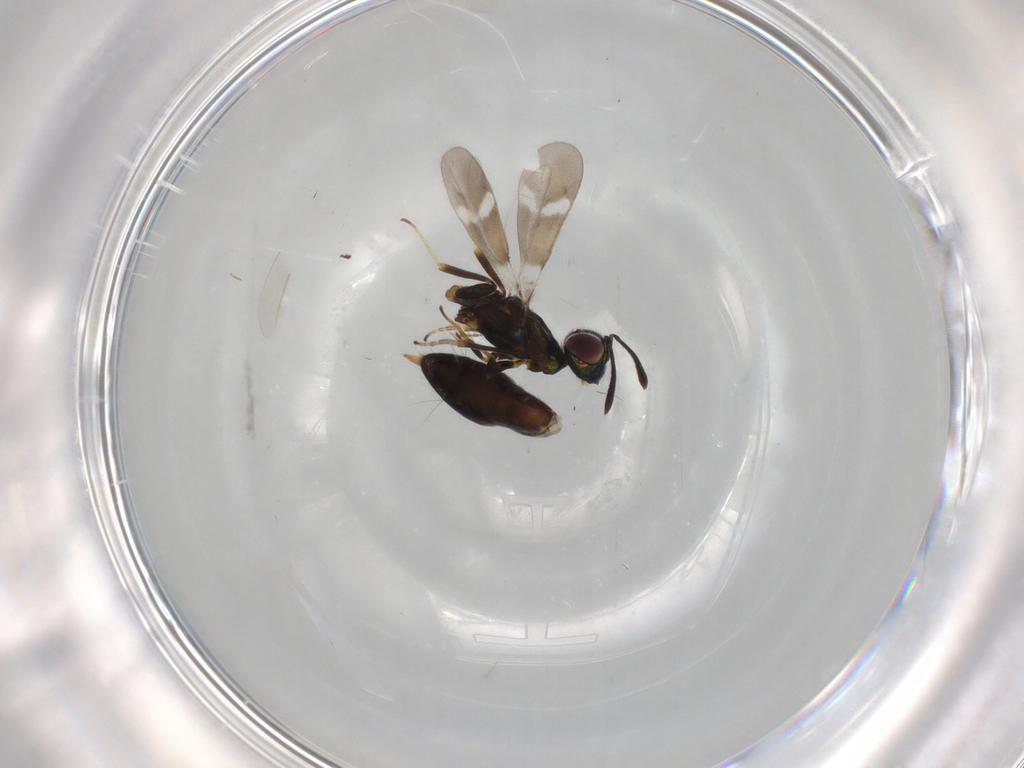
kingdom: Animalia
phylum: Arthropoda
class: Insecta
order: Hymenoptera
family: Eupelmidae
